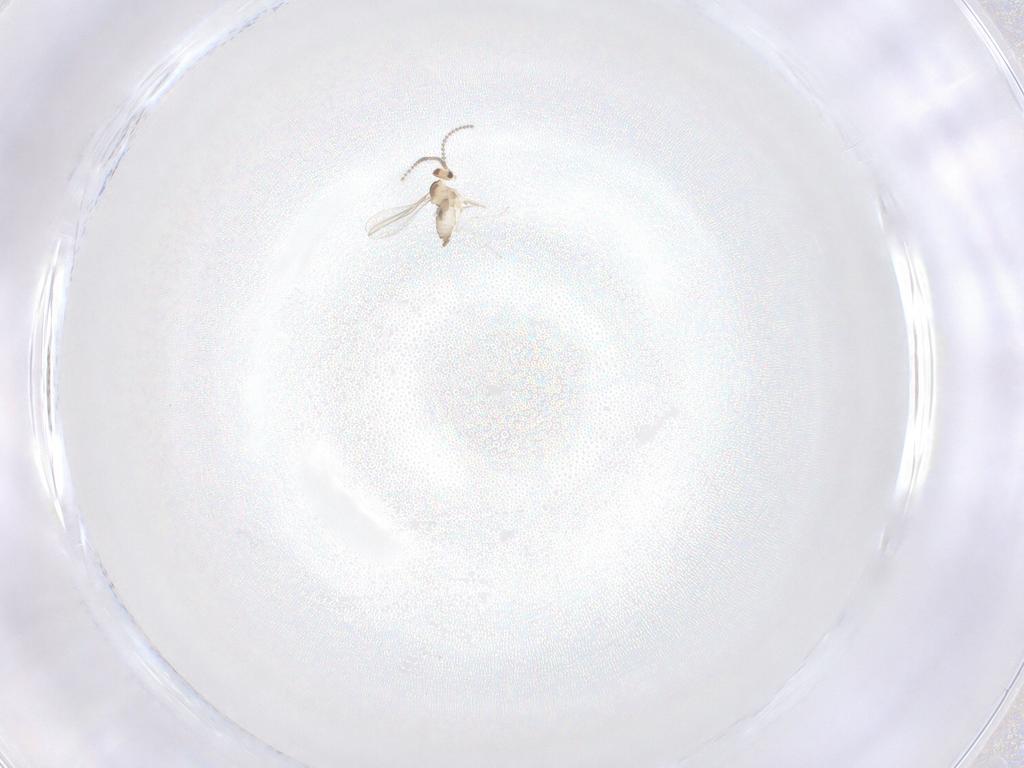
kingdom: Animalia
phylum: Arthropoda
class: Insecta
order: Diptera
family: Cecidomyiidae
